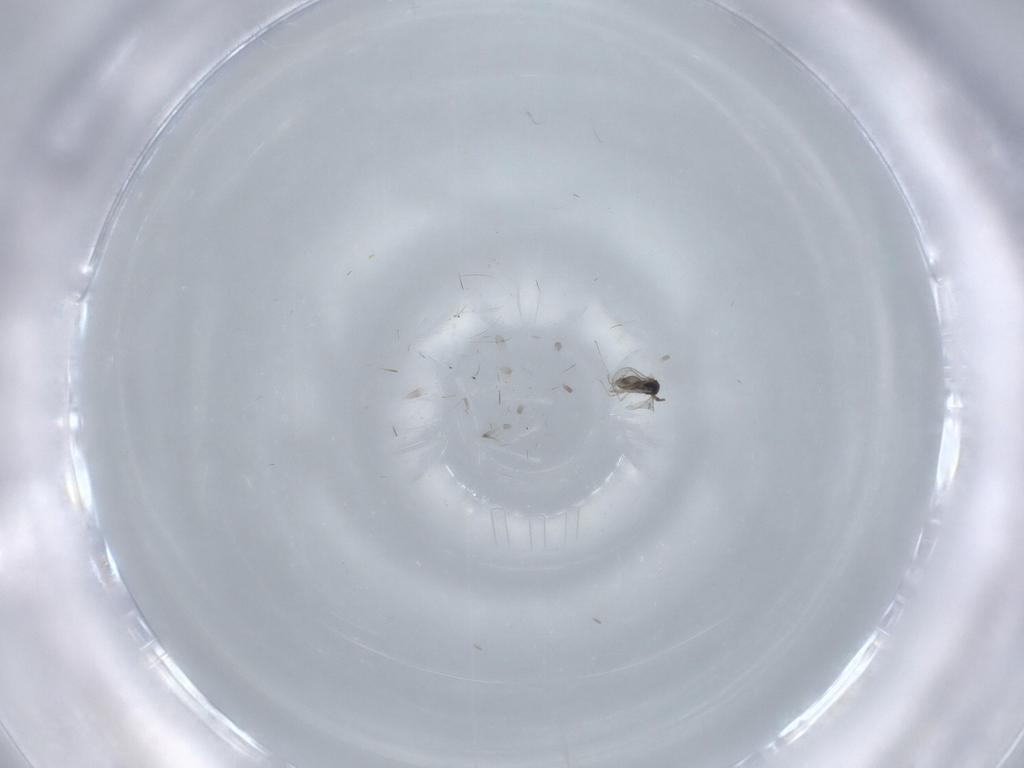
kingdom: Animalia
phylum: Arthropoda
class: Insecta
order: Diptera
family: Cecidomyiidae
